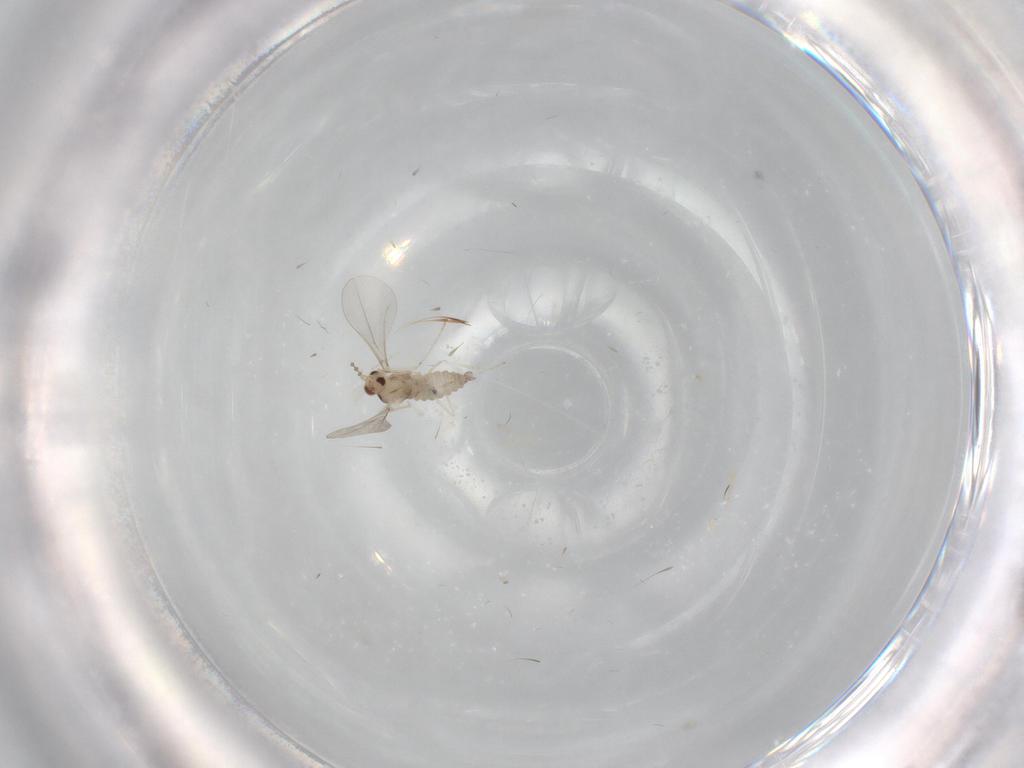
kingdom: Animalia
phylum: Arthropoda
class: Insecta
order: Diptera
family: Cecidomyiidae
